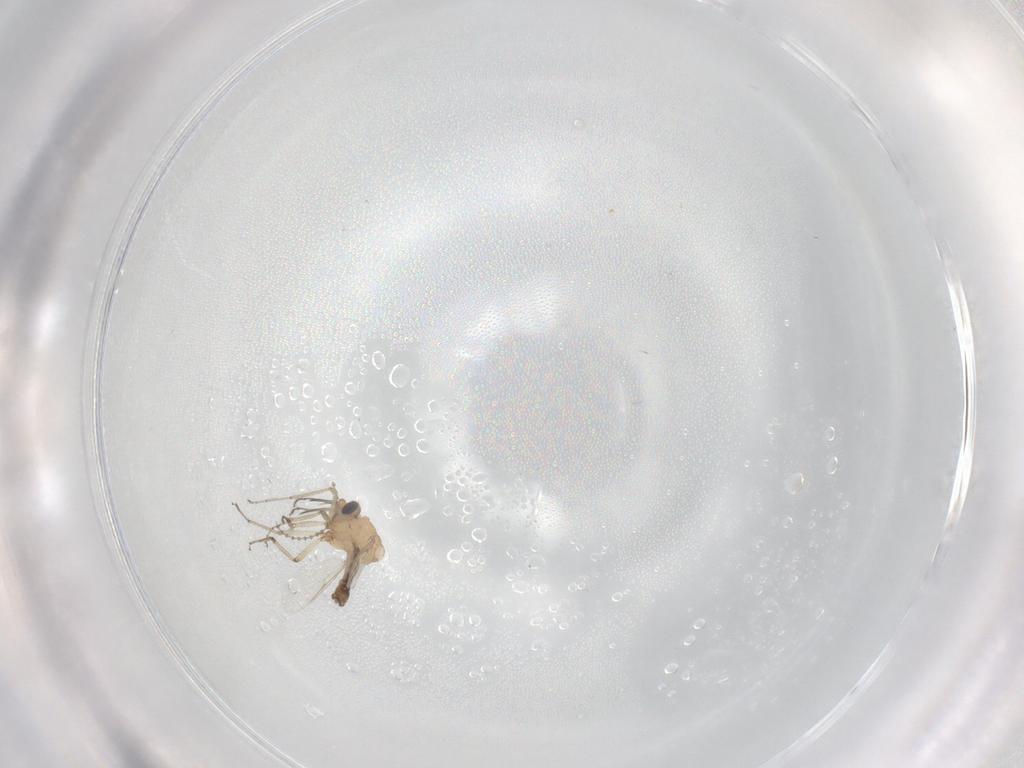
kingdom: Animalia
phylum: Arthropoda
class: Insecta
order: Diptera
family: Ceratopogonidae
